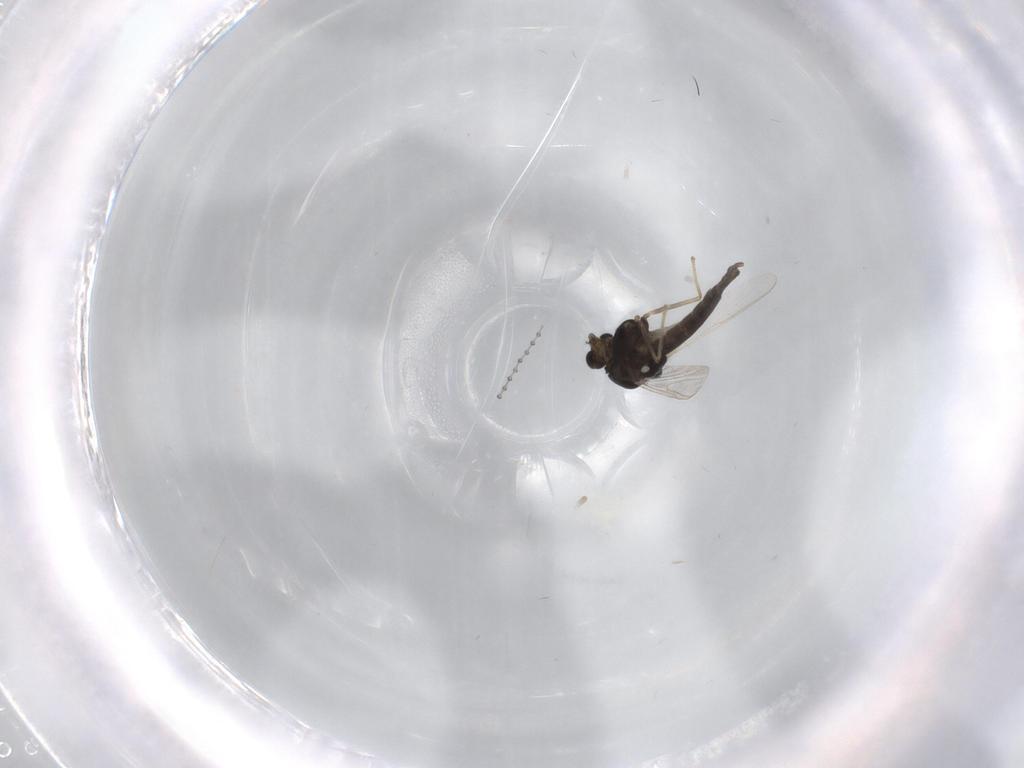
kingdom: Animalia
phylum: Arthropoda
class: Insecta
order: Diptera
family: Chironomidae
